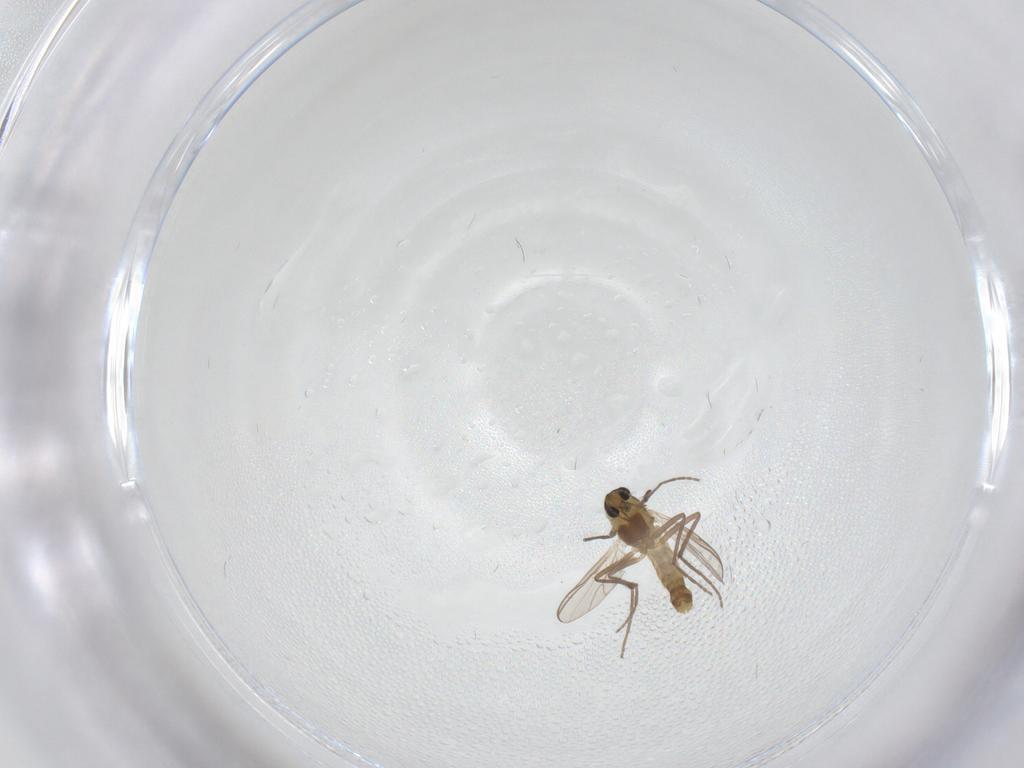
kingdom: Animalia
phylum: Arthropoda
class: Insecta
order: Diptera
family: Chironomidae
